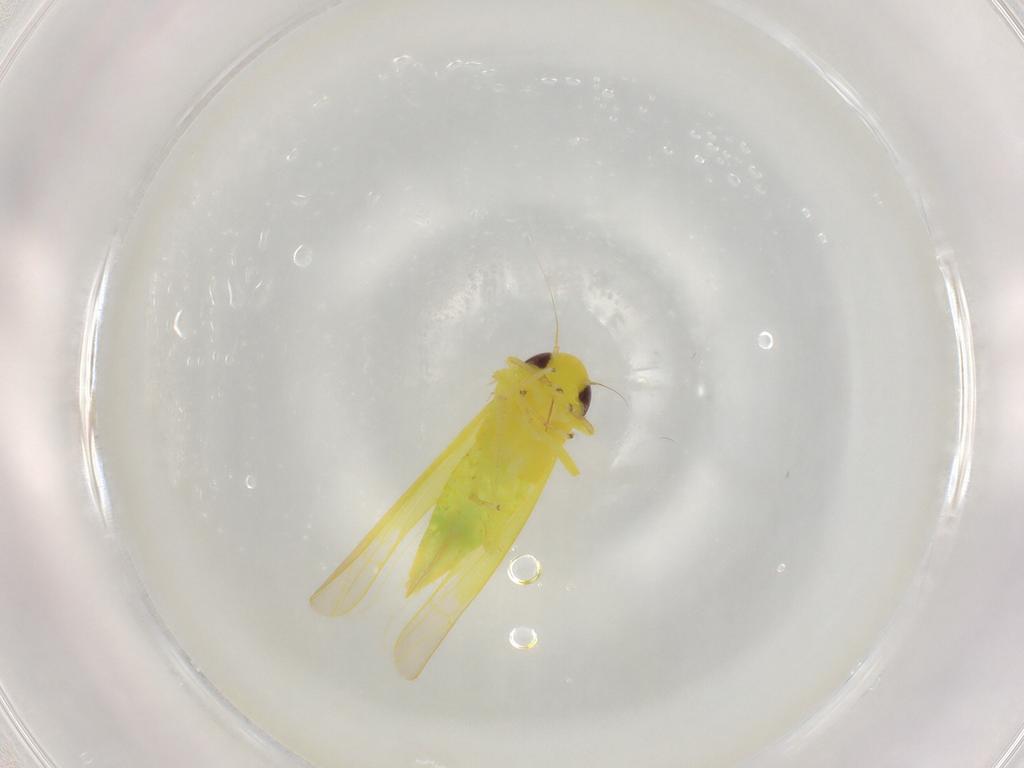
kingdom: Animalia
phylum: Arthropoda
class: Insecta
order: Hemiptera
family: Cicadellidae
